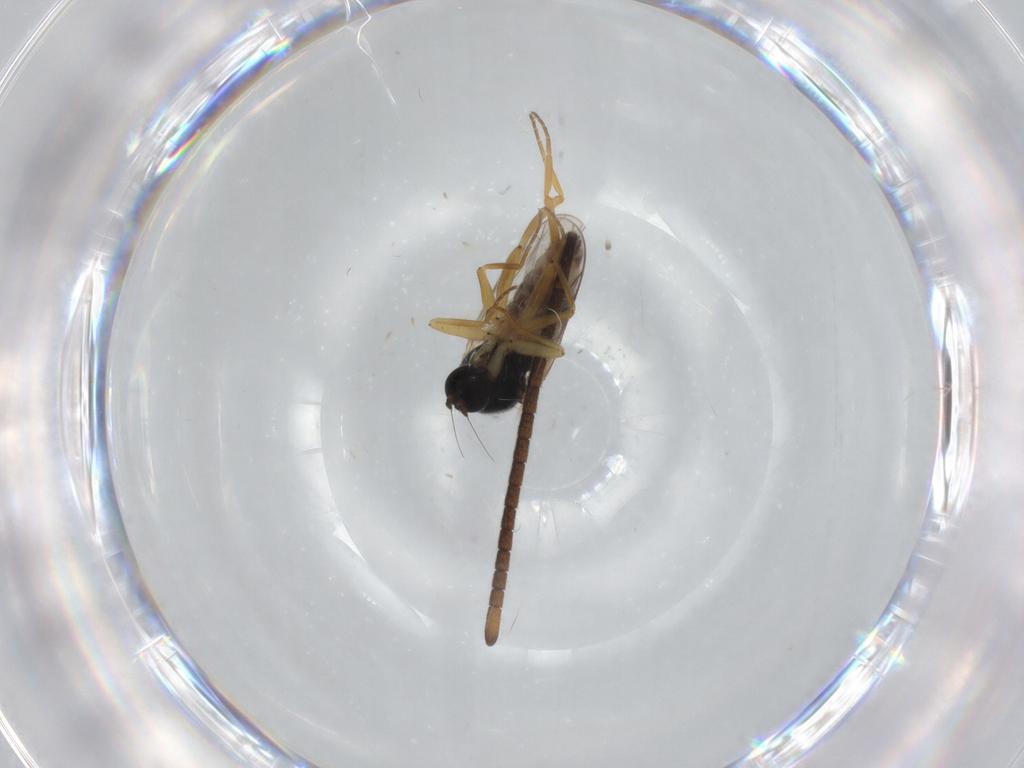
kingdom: Animalia
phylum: Arthropoda
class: Insecta
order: Diptera
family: Hybotidae
